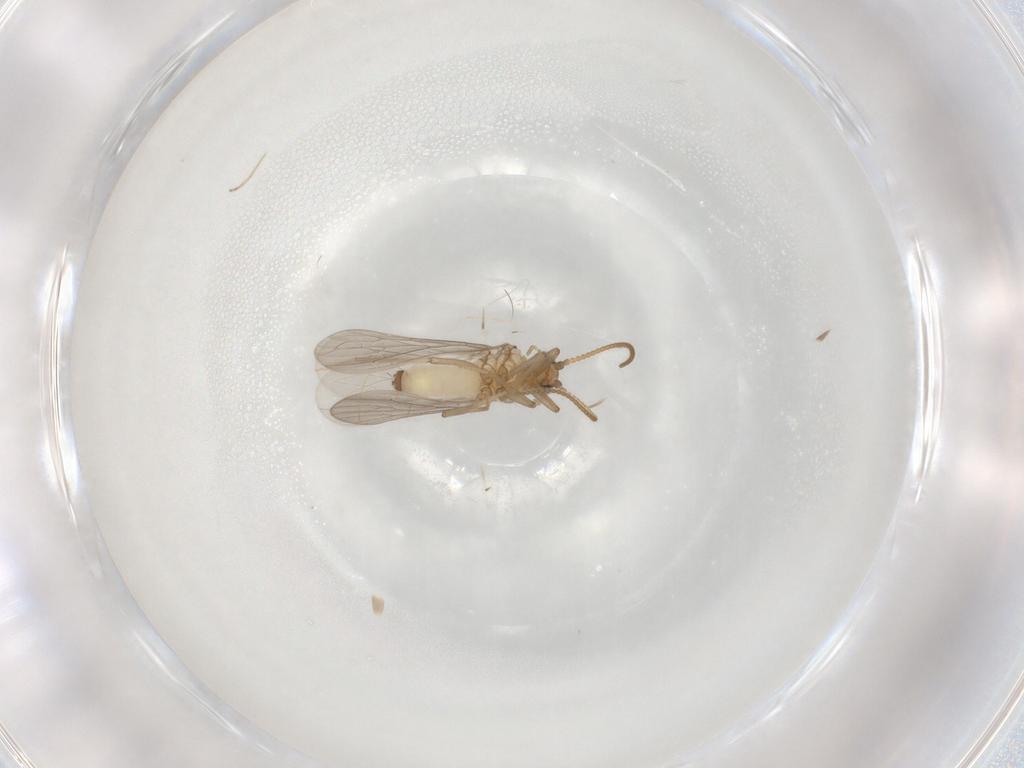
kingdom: Animalia
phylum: Arthropoda
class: Insecta
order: Neuroptera
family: Coniopterygidae
